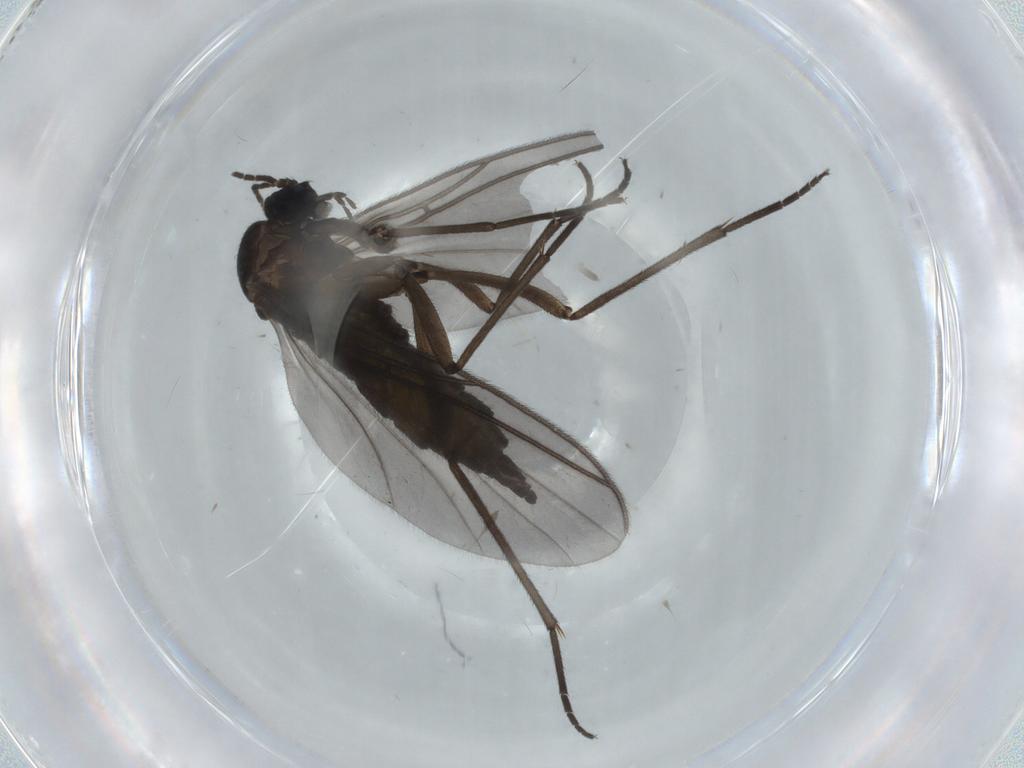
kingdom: Animalia
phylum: Arthropoda
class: Insecta
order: Diptera
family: Sciaridae
